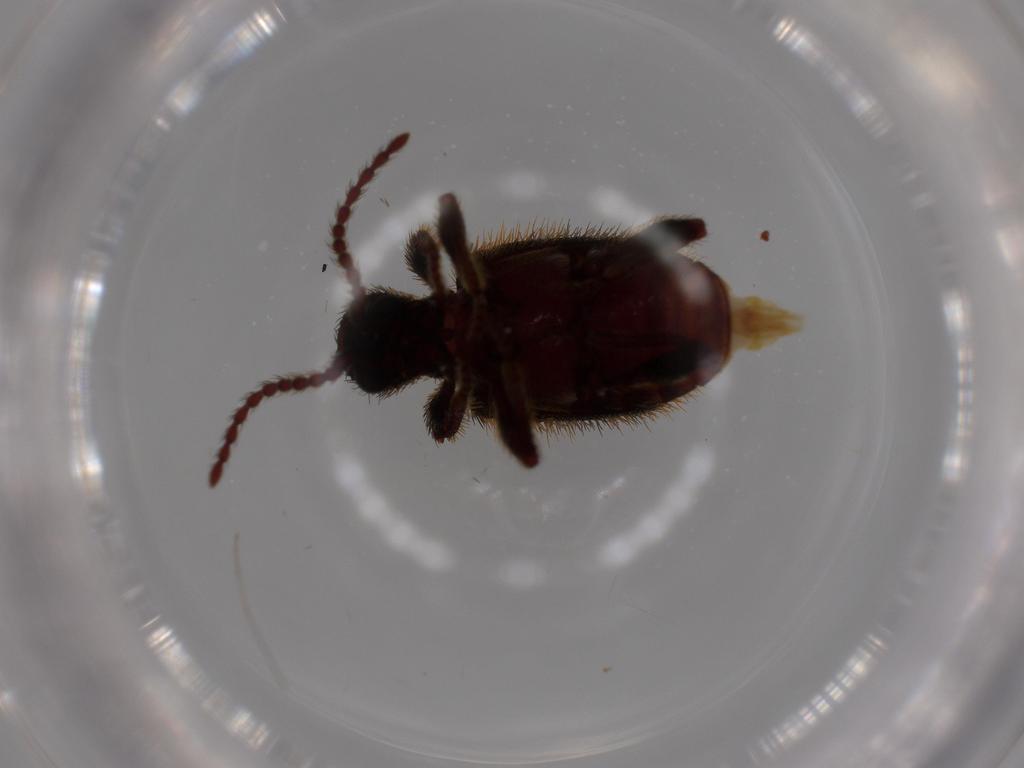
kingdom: Animalia
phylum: Arthropoda
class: Insecta
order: Coleoptera
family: Ptinidae
